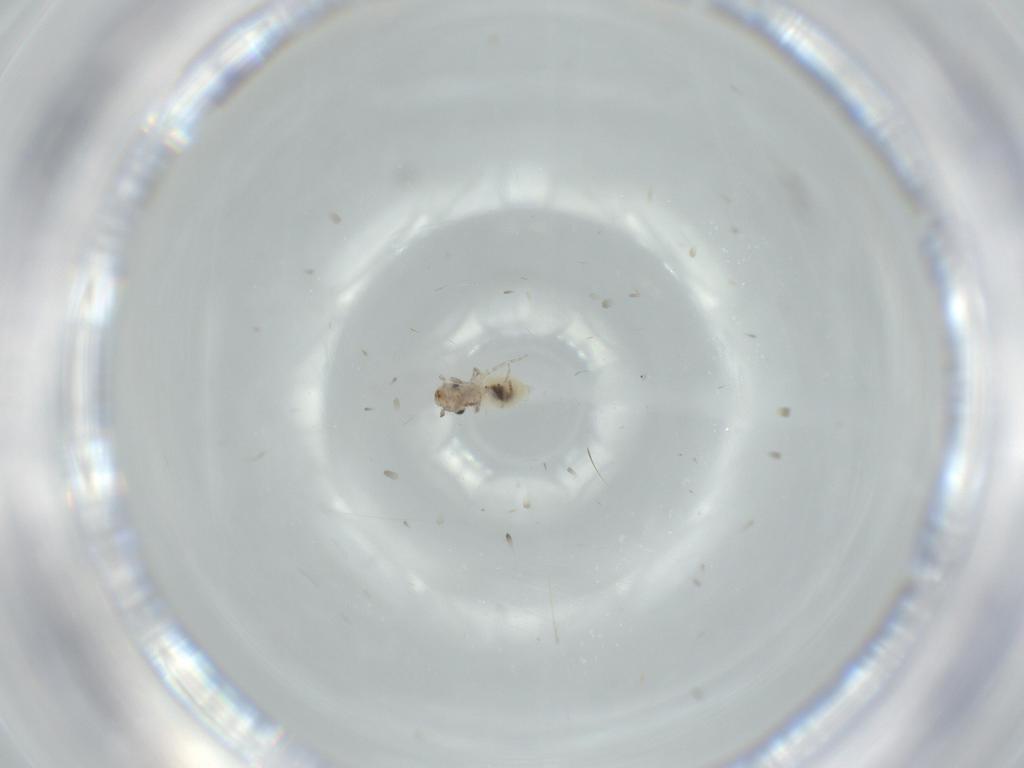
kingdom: Animalia
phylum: Arthropoda
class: Insecta
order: Psocodea
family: Lepidopsocidae
